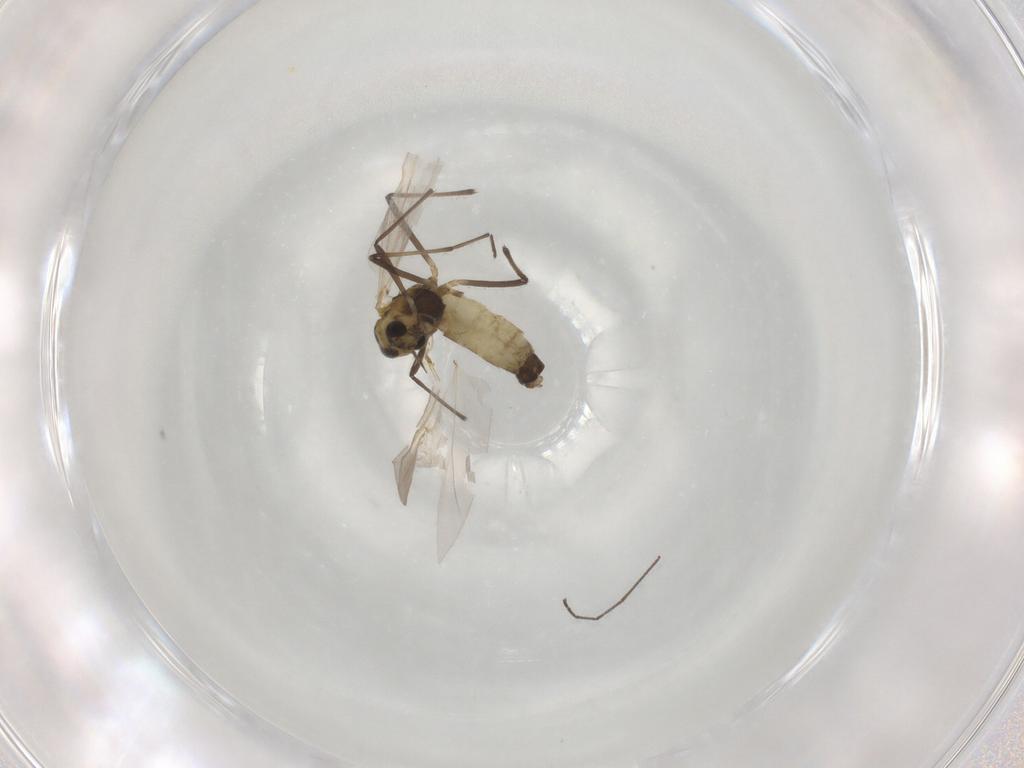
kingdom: Animalia
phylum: Arthropoda
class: Insecta
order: Diptera
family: Chironomidae
